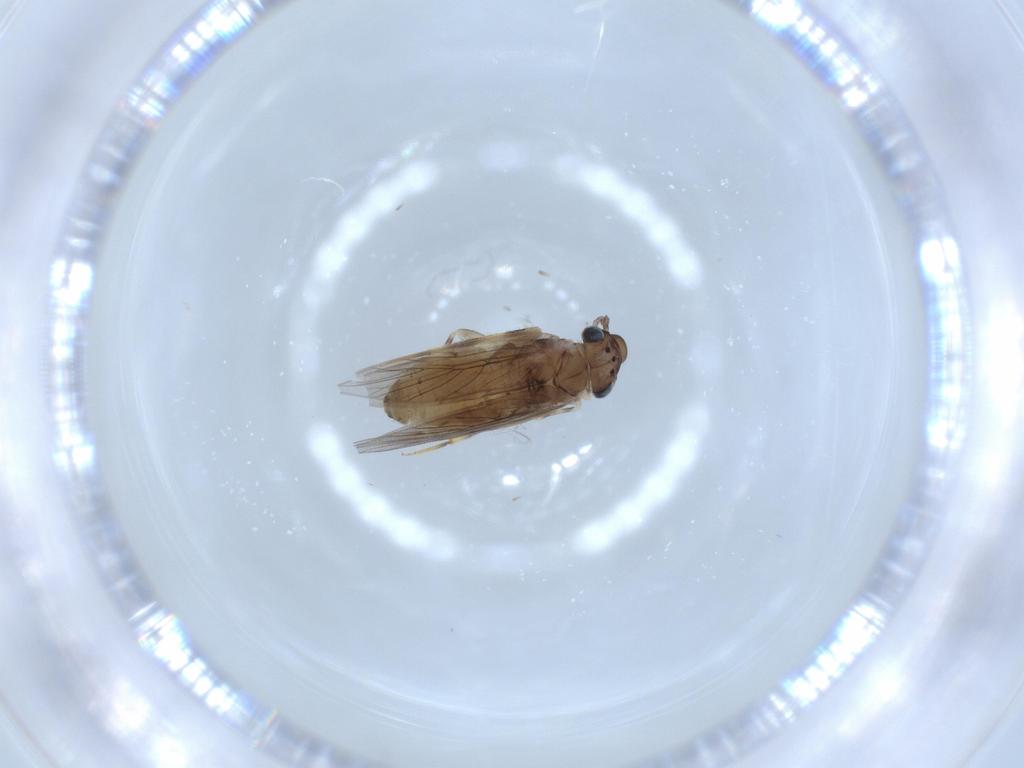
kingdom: Animalia
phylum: Arthropoda
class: Insecta
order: Psocodea
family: Lepidopsocidae
